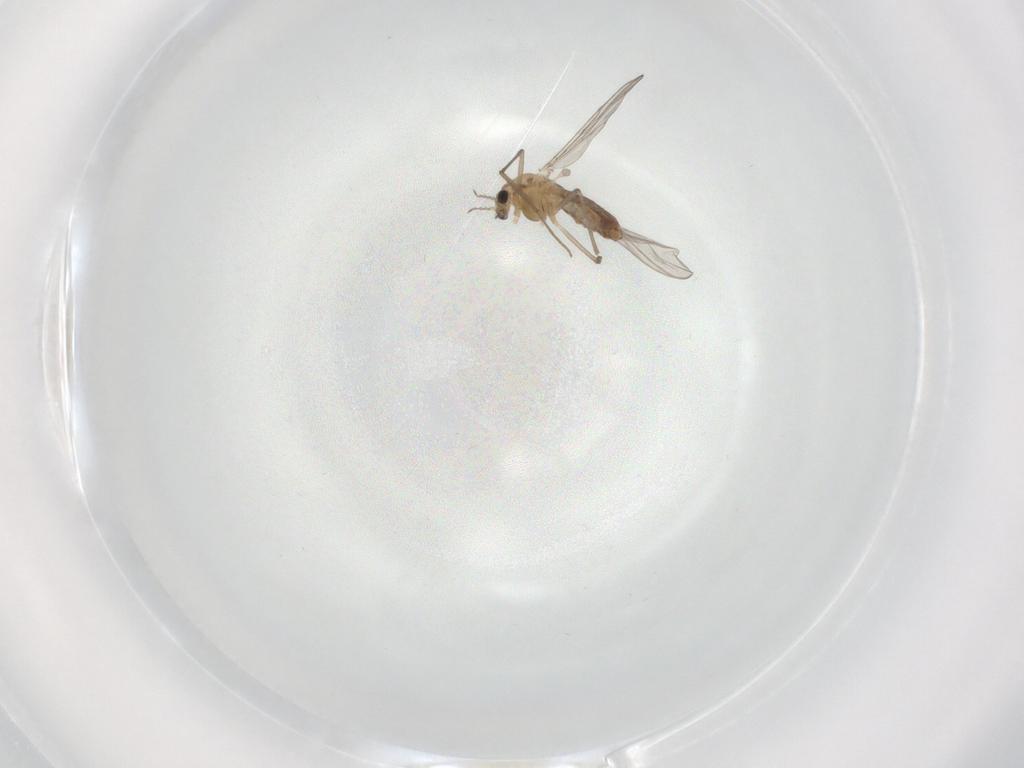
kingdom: Animalia
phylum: Arthropoda
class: Insecta
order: Diptera
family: Chironomidae
